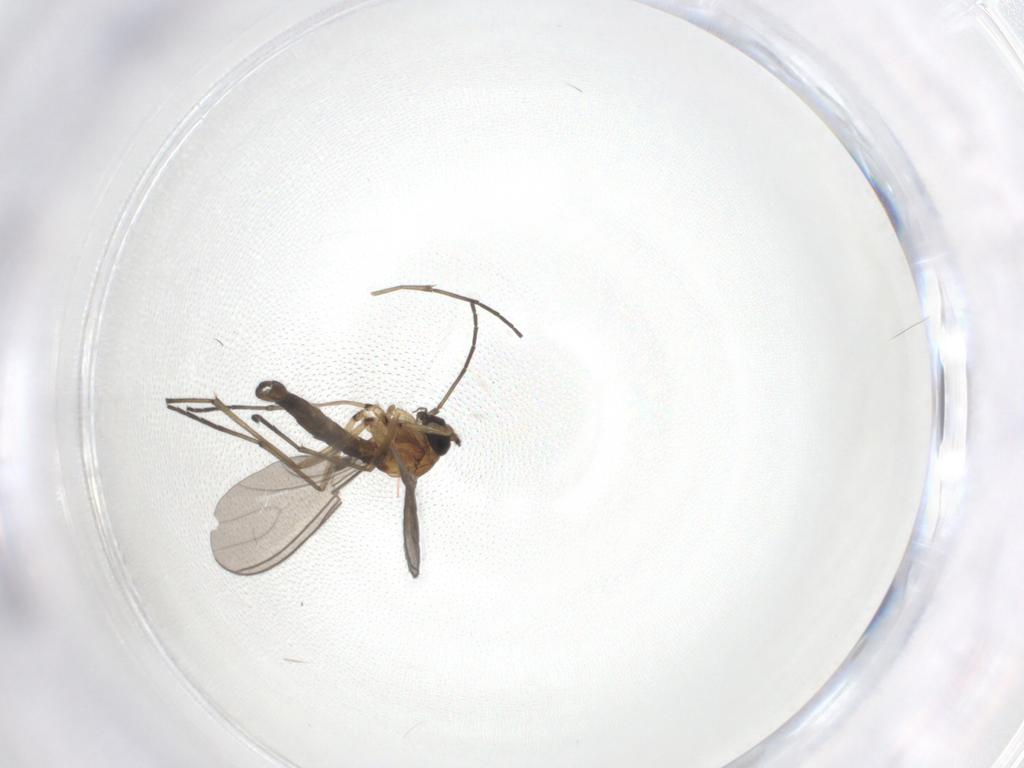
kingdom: Animalia
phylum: Arthropoda
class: Insecta
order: Diptera
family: Sciaridae
